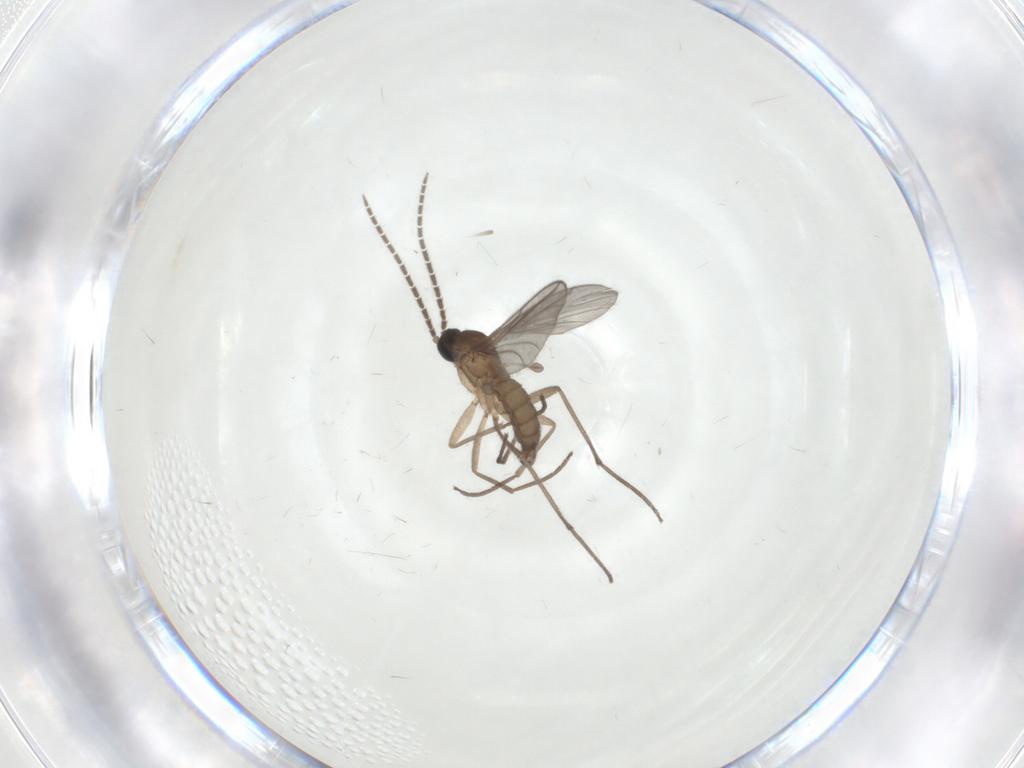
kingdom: Animalia
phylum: Arthropoda
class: Insecta
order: Diptera
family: Sciaridae
